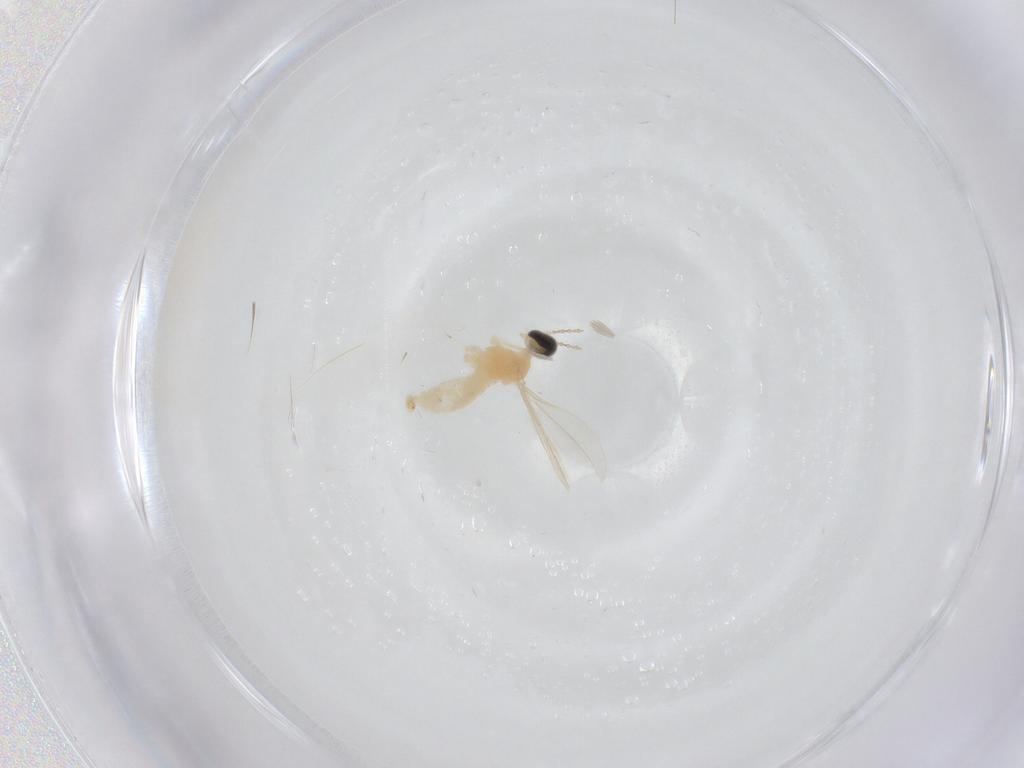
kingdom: Animalia
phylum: Arthropoda
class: Insecta
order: Diptera
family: Cecidomyiidae
